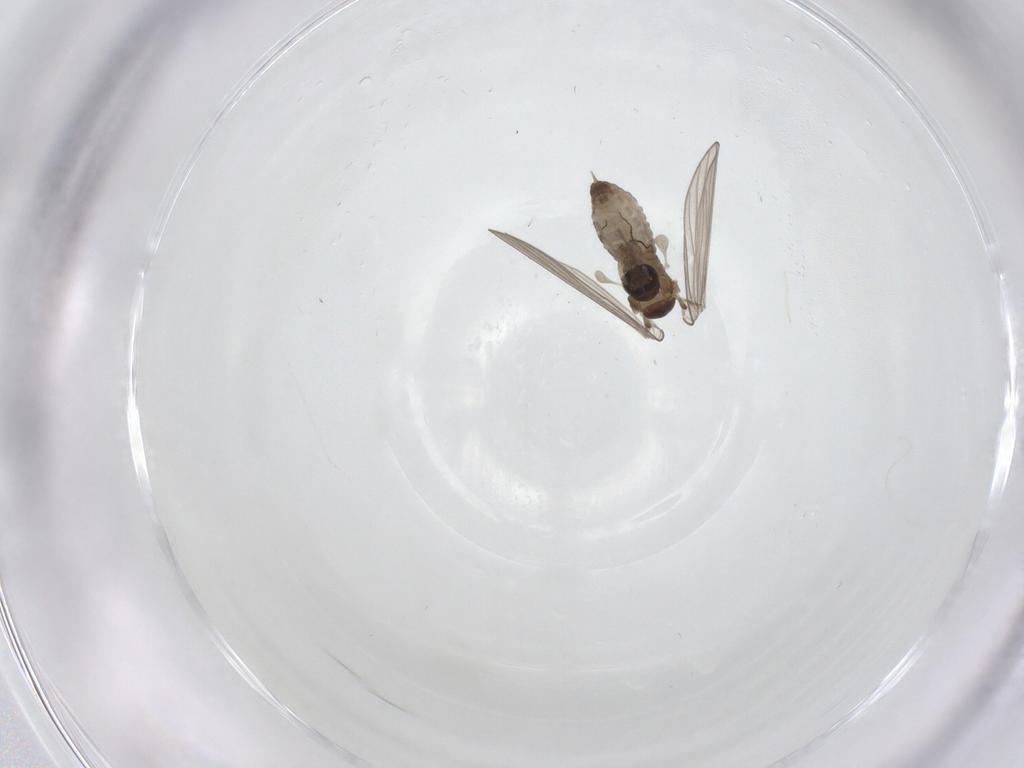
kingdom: Animalia
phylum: Arthropoda
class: Insecta
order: Diptera
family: Psychodidae
